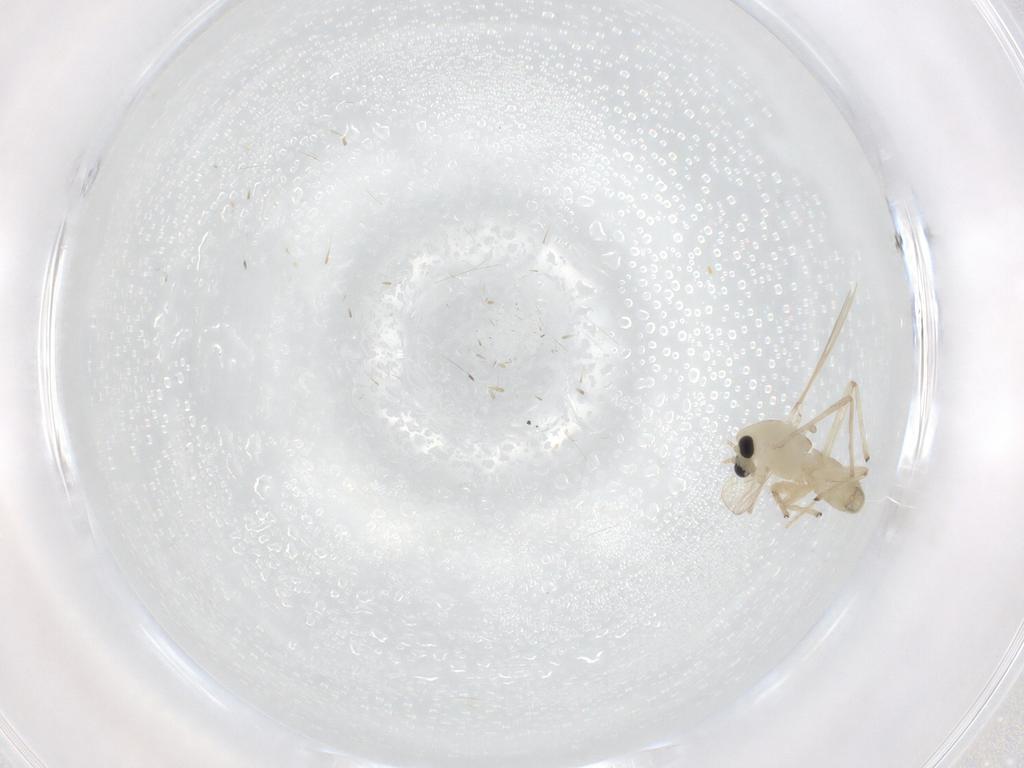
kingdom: Animalia
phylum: Arthropoda
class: Insecta
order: Diptera
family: Chironomidae
